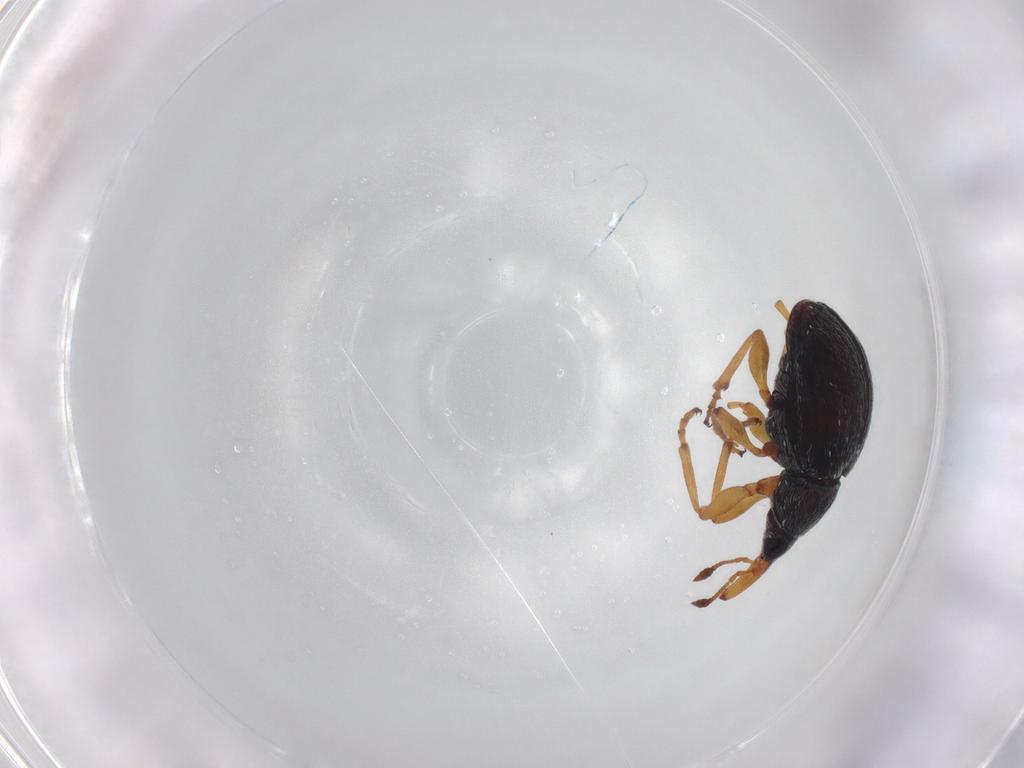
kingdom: Animalia
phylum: Arthropoda
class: Insecta
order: Coleoptera
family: Brentidae
